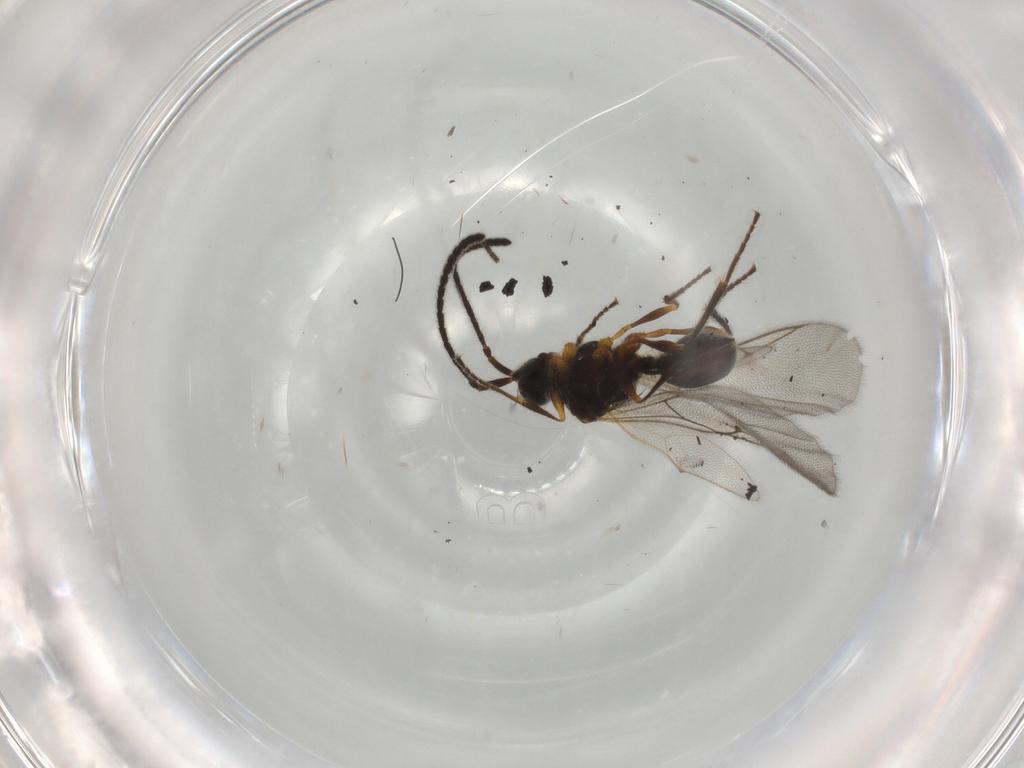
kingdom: Animalia
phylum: Arthropoda
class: Insecta
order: Hymenoptera
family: Diapriidae
